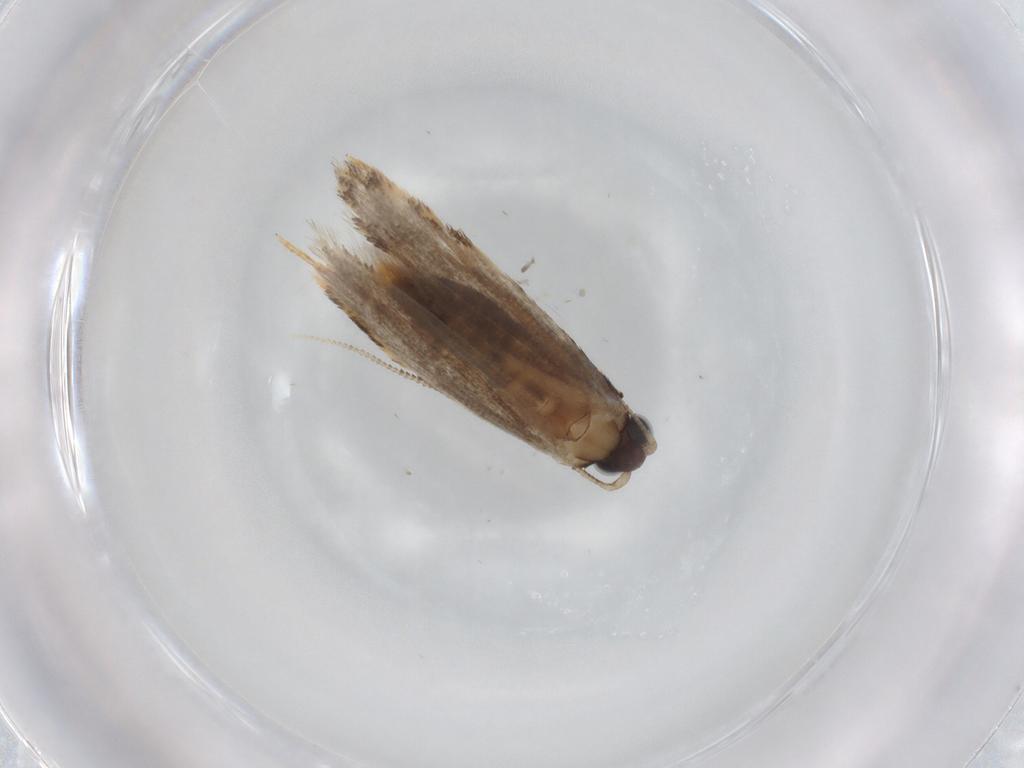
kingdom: Animalia
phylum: Arthropoda
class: Insecta
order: Lepidoptera
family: Tineidae
